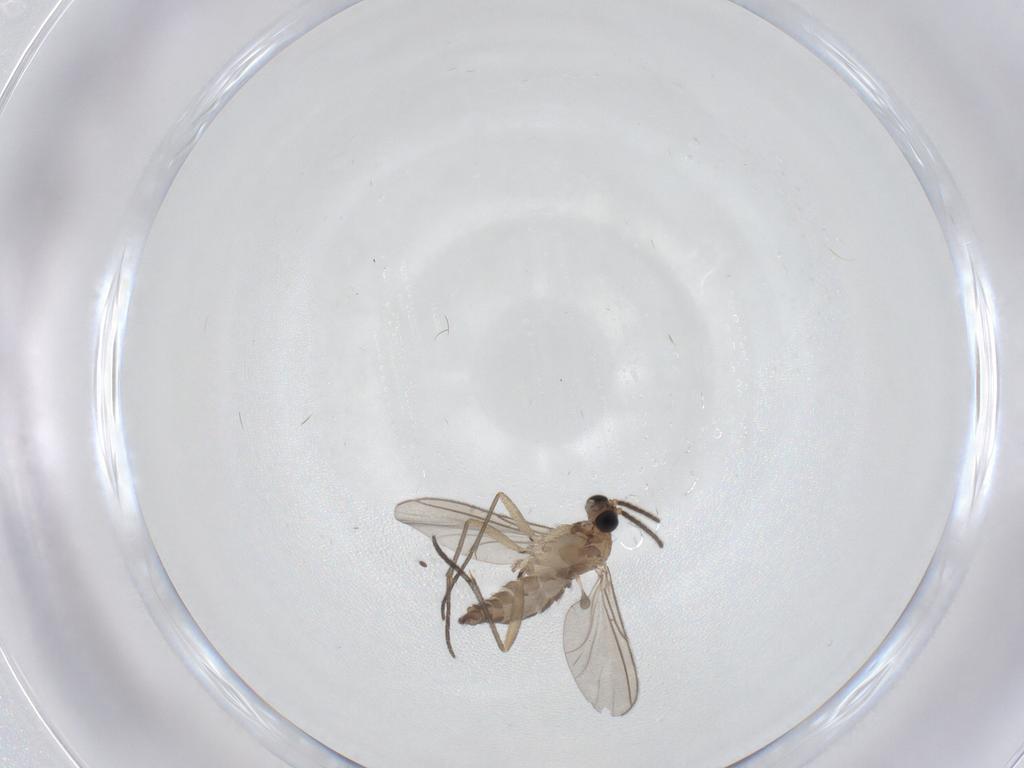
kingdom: Animalia
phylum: Arthropoda
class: Insecta
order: Diptera
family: Sciaridae
